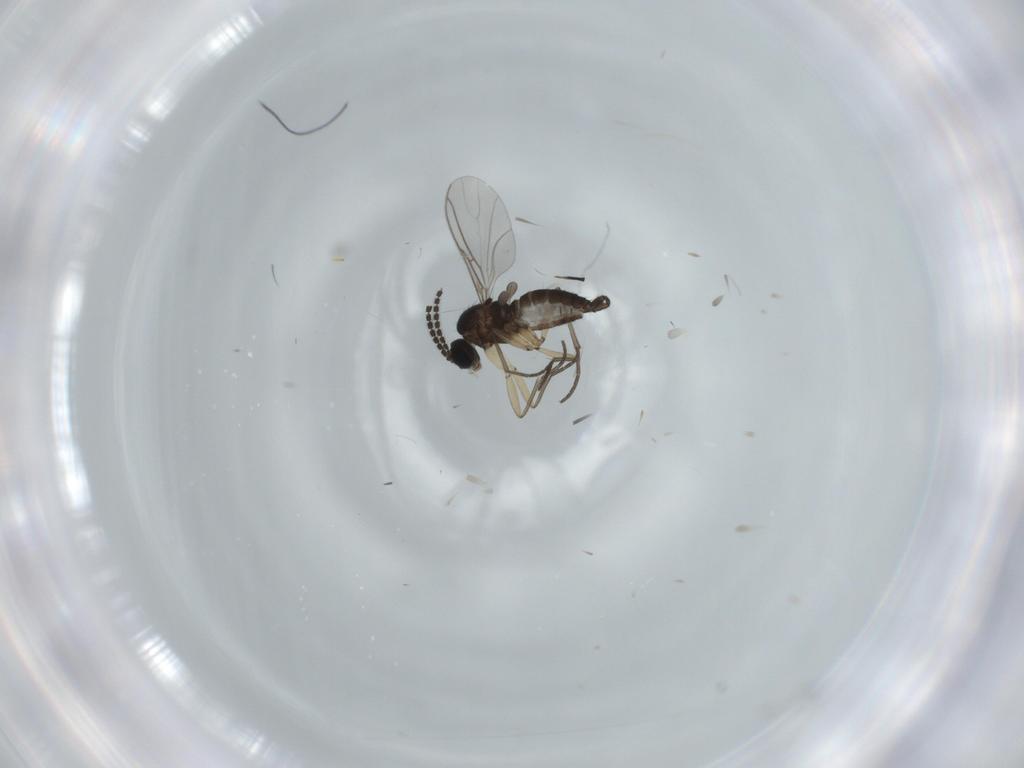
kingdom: Animalia
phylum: Arthropoda
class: Insecta
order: Diptera
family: Sciaridae
